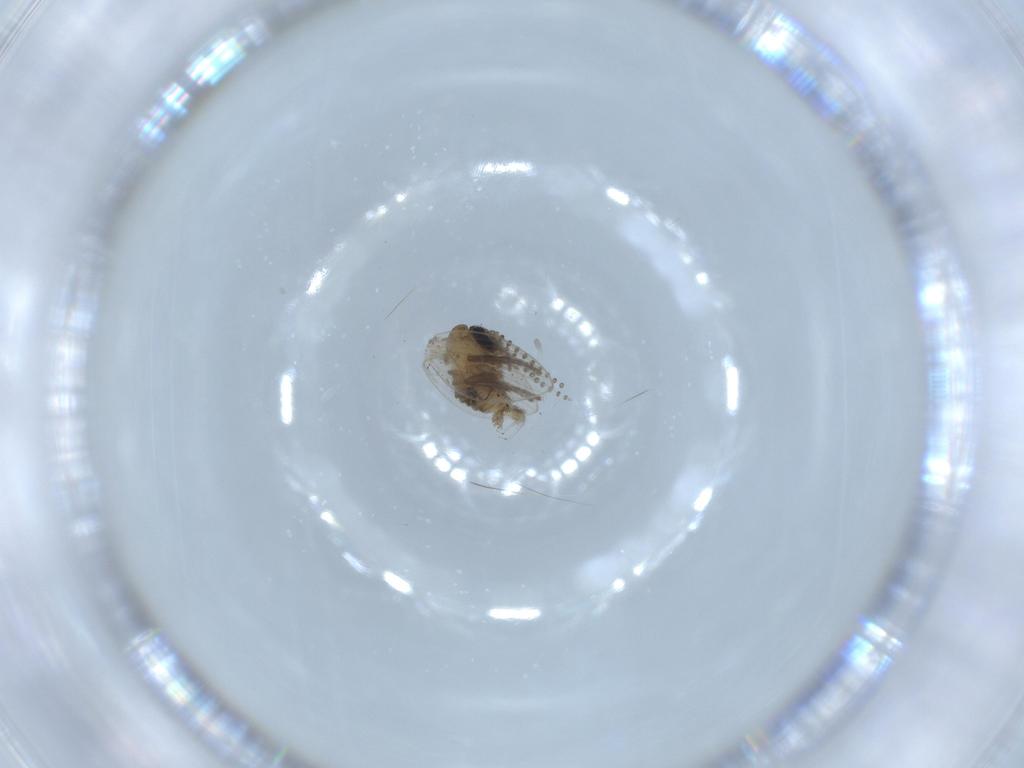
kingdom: Animalia
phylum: Arthropoda
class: Insecta
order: Diptera
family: Sciaridae
